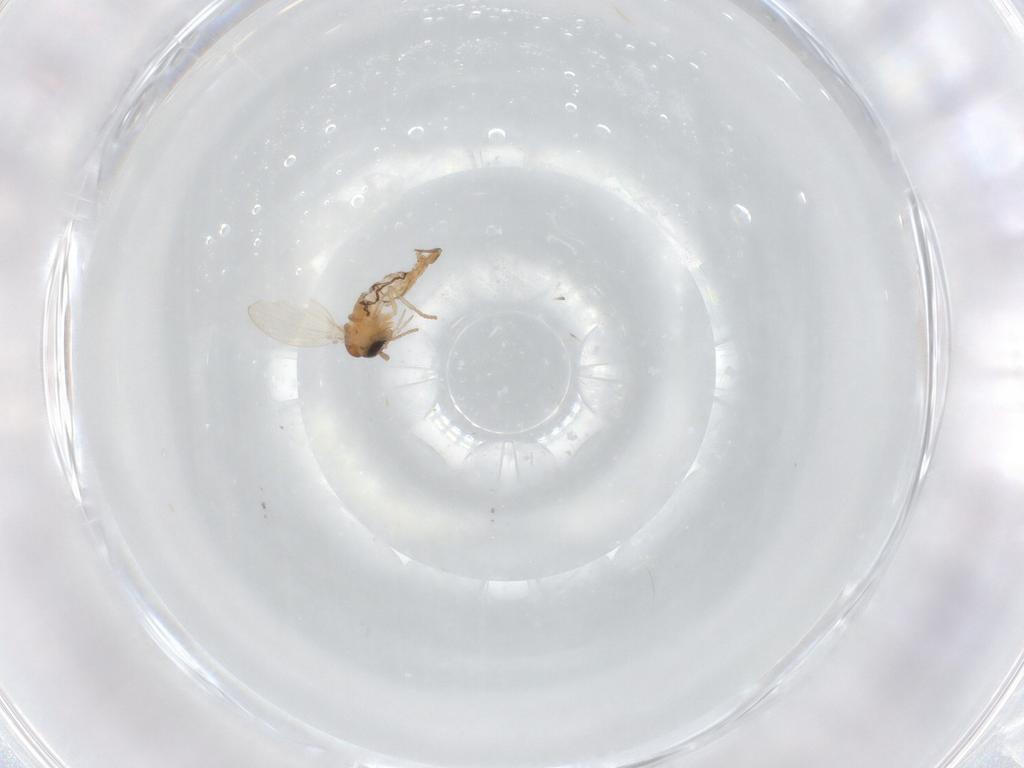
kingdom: Animalia
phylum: Arthropoda
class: Insecta
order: Diptera
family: Psychodidae
